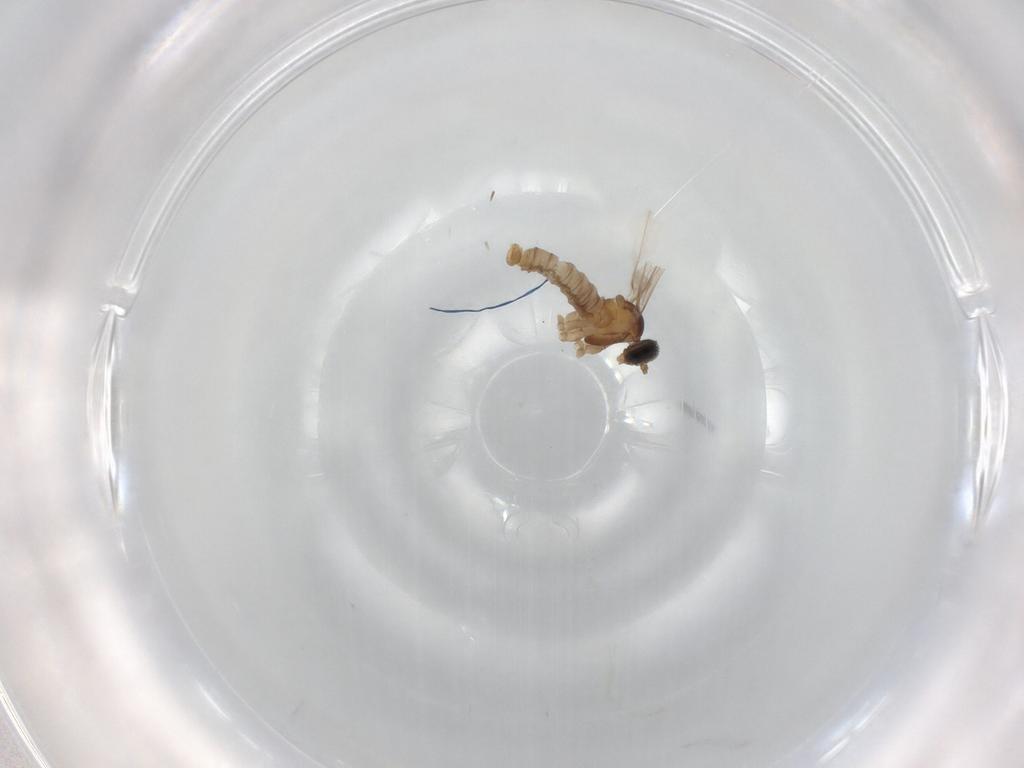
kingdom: Animalia
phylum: Arthropoda
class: Insecta
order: Diptera
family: Cecidomyiidae
